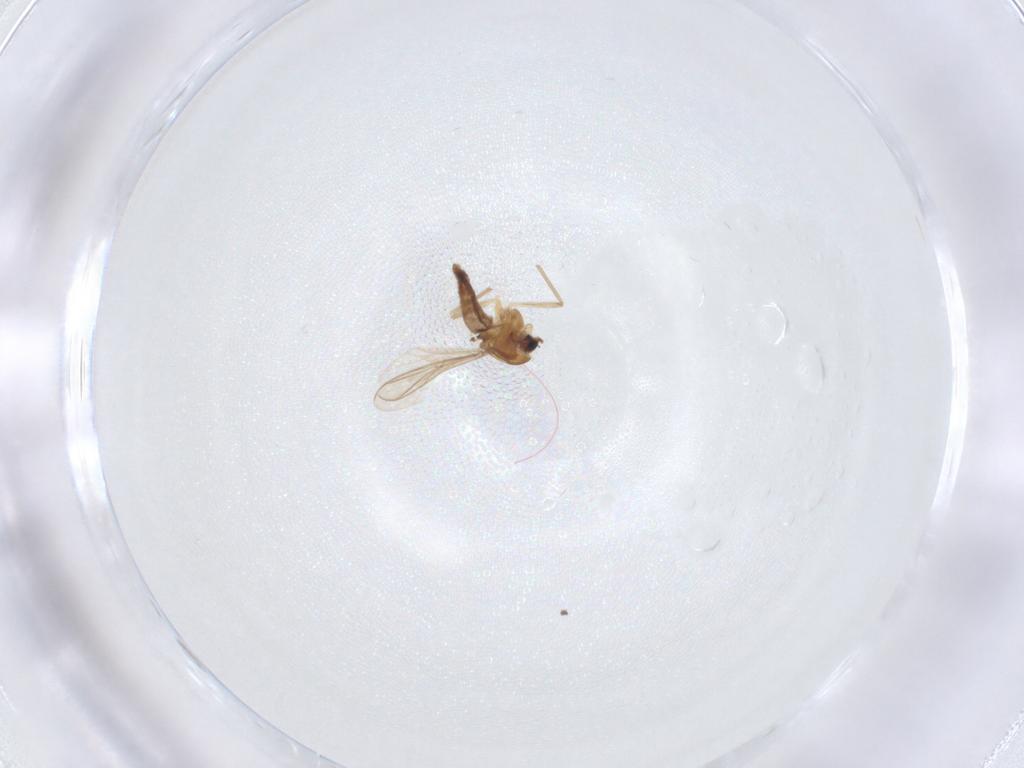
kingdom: Animalia
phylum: Arthropoda
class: Insecta
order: Diptera
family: Chironomidae
